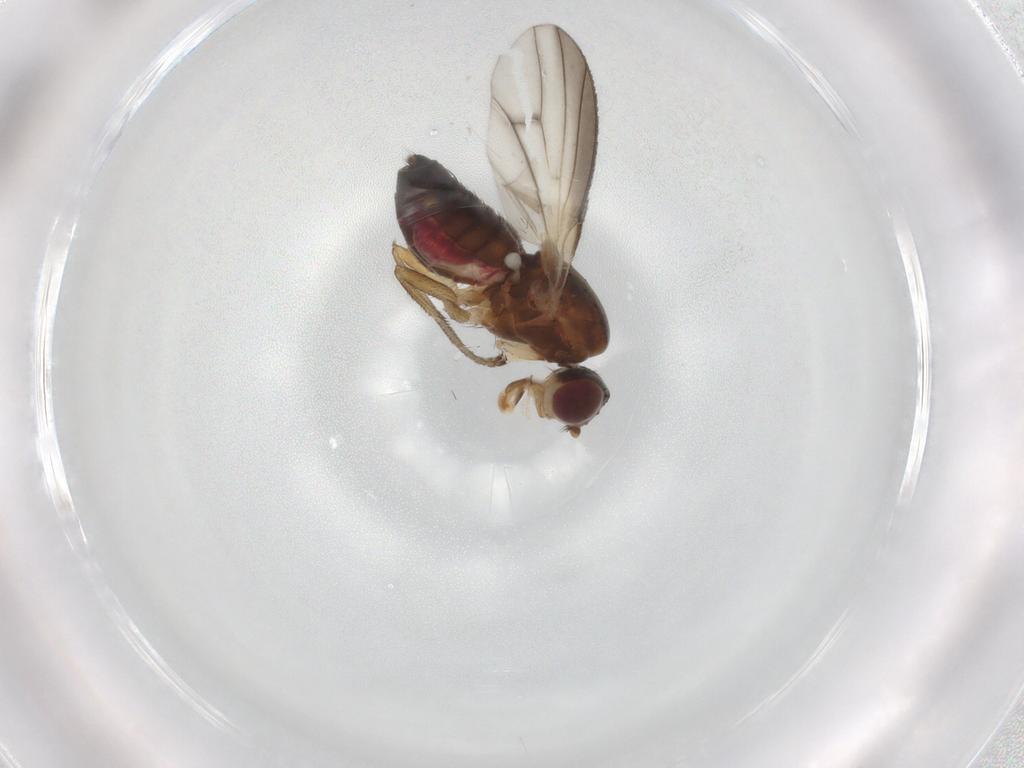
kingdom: Animalia
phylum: Arthropoda
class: Insecta
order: Diptera
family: Heleomyzidae
